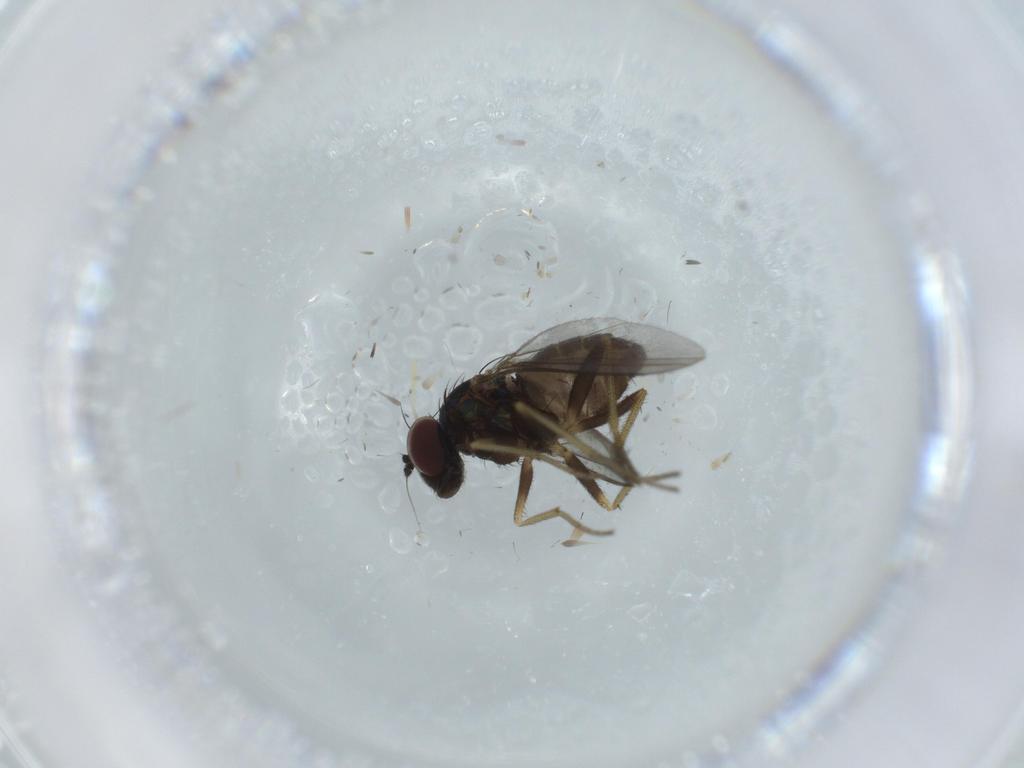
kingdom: Animalia
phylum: Arthropoda
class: Insecta
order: Diptera
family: Dolichopodidae
